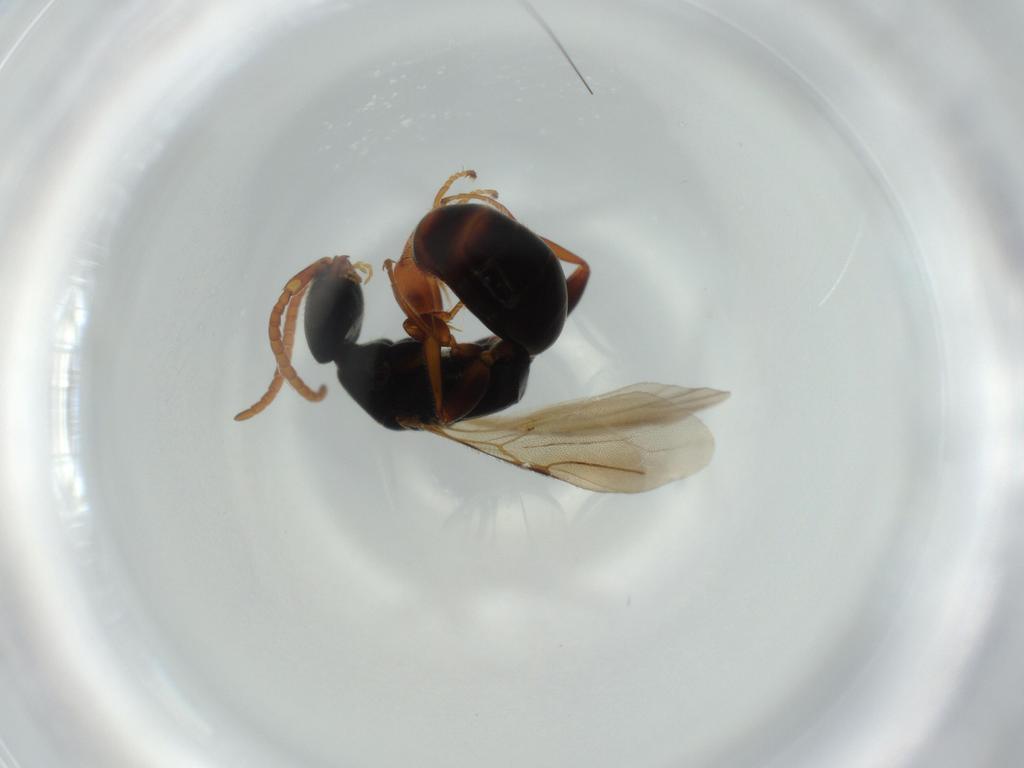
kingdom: Animalia
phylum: Arthropoda
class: Insecta
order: Hymenoptera
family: Bethylidae
